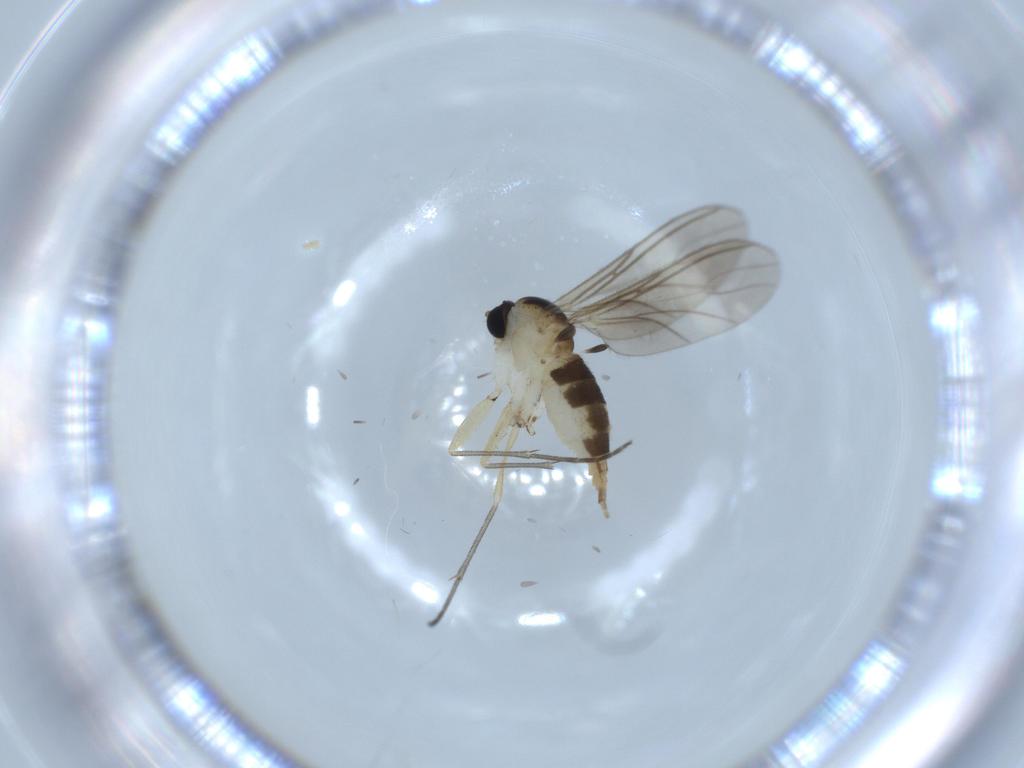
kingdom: Animalia
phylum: Arthropoda
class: Insecta
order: Diptera
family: Sciaridae
